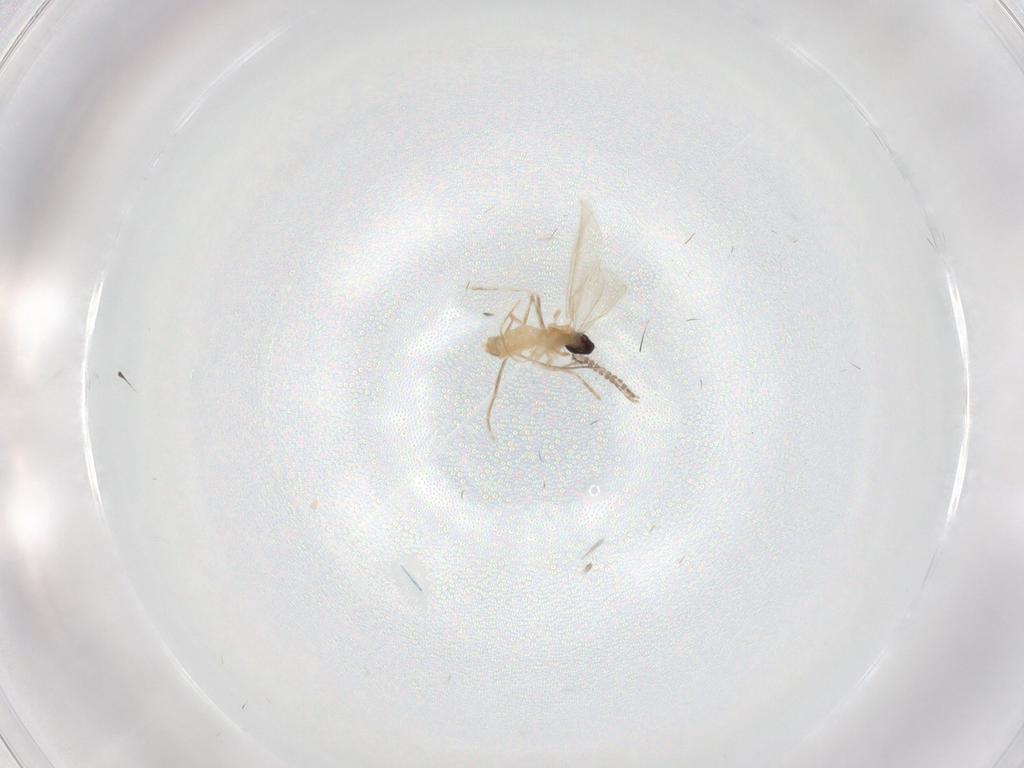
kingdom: Animalia
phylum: Arthropoda
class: Insecta
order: Diptera
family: Cecidomyiidae
